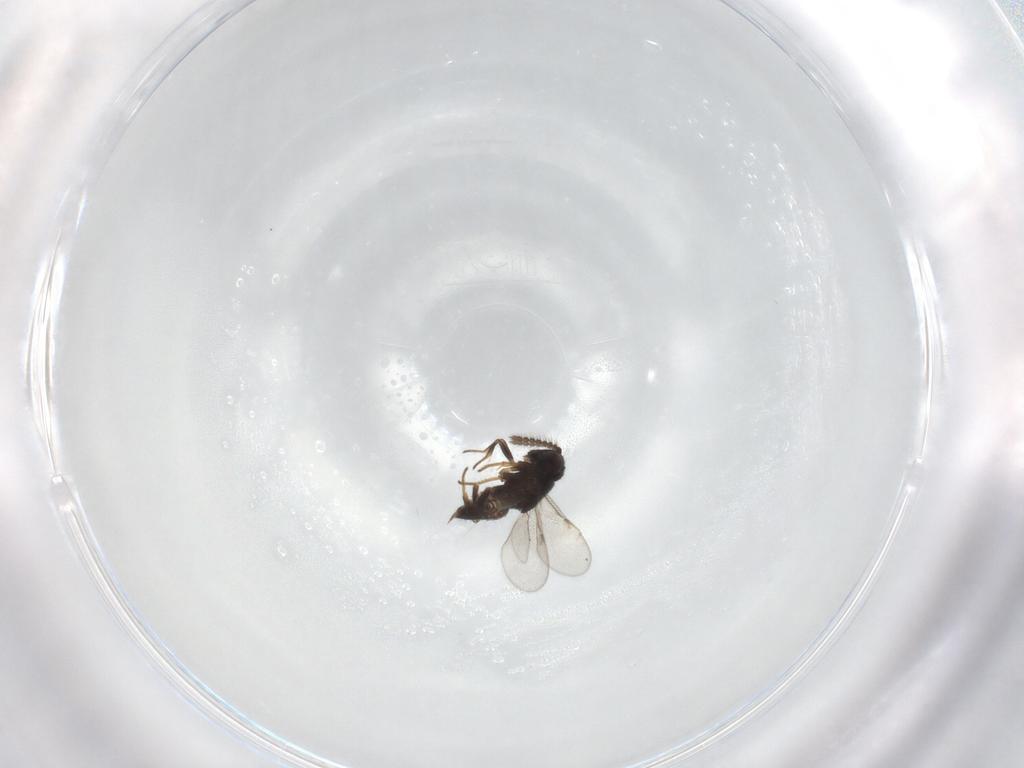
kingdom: Animalia
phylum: Arthropoda
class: Insecta
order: Hymenoptera
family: Encyrtidae
